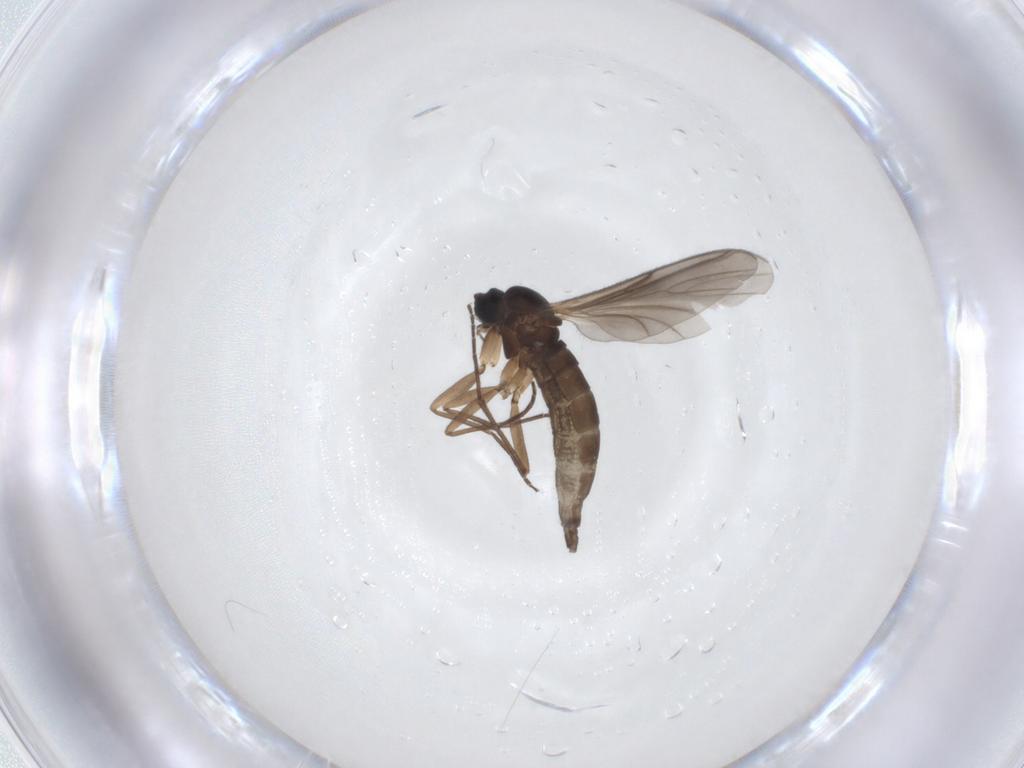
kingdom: Animalia
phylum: Arthropoda
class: Insecta
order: Diptera
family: Sciaridae
